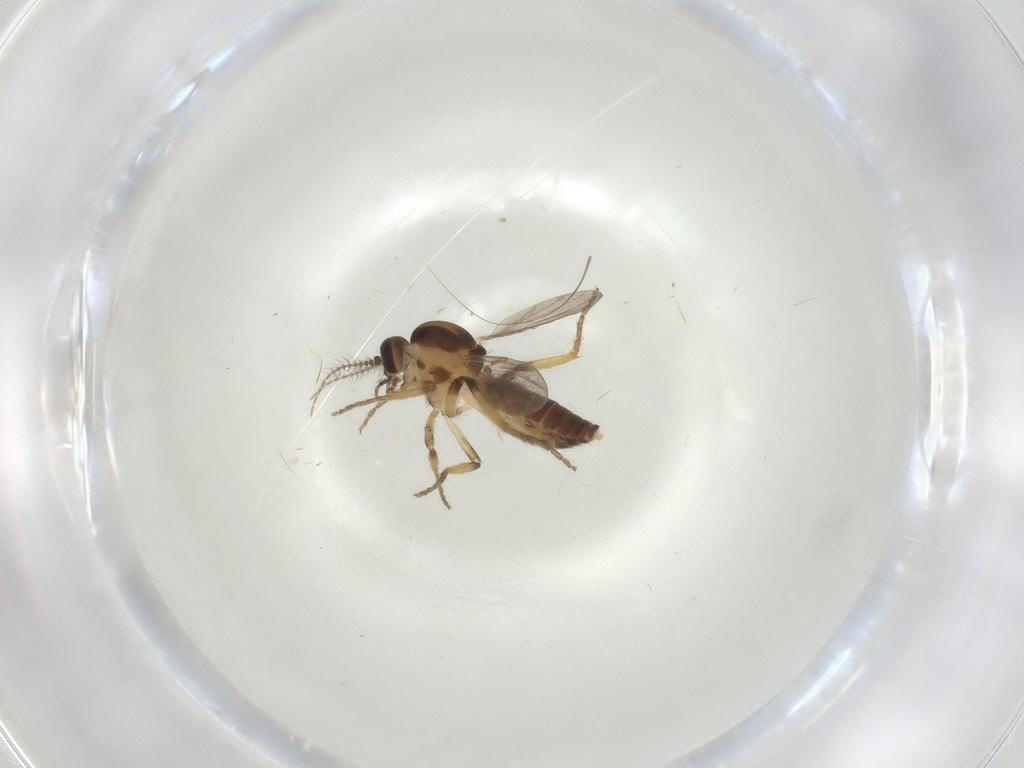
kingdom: Animalia
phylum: Arthropoda
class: Insecta
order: Diptera
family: Ceratopogonidae
